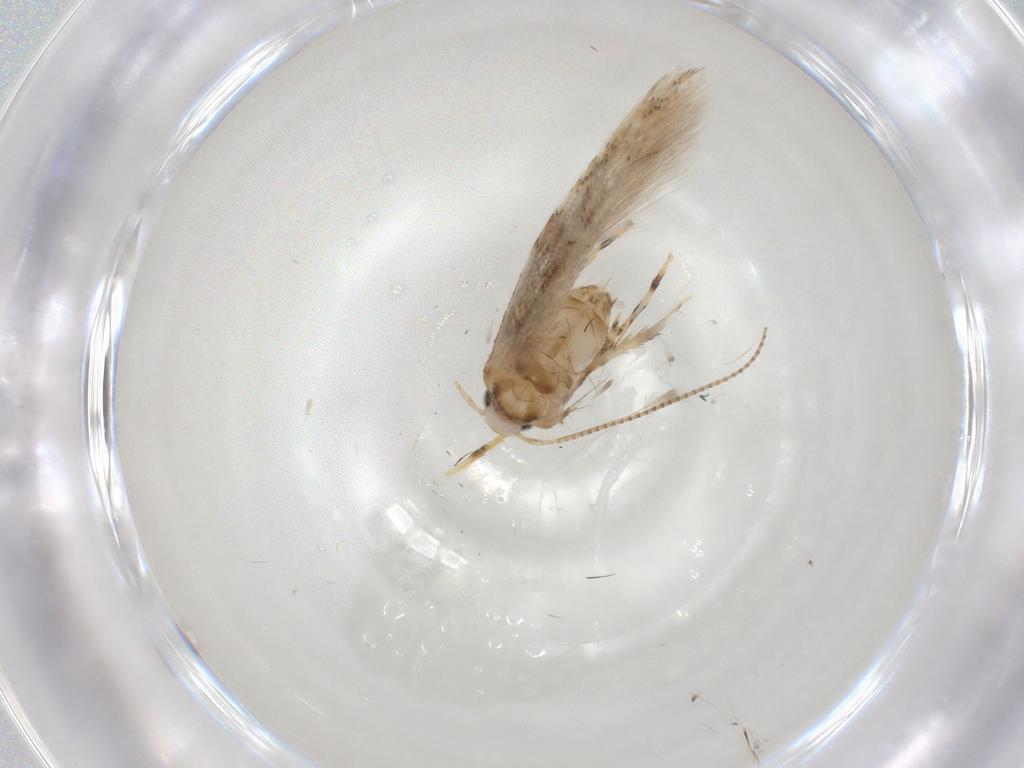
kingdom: Animalia
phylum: Arthropoda
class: Insecta
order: Lepidoptera
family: Gracillariidae
